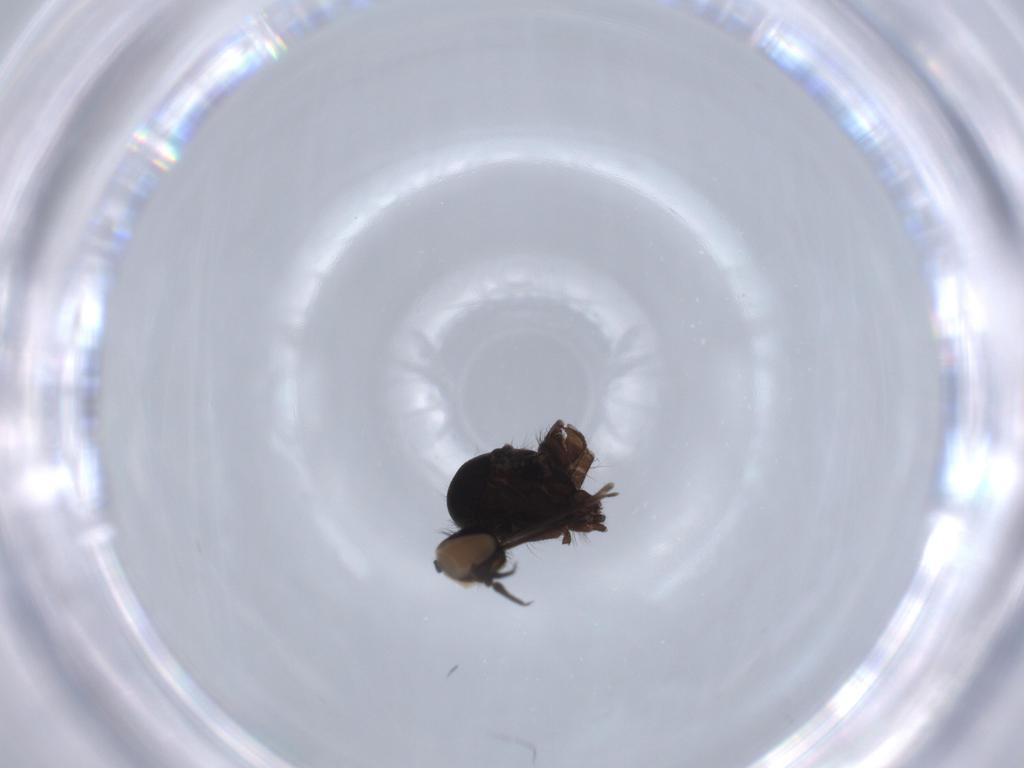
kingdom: Animalia
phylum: Arthropoda
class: Insecta
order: Diptera
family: Empididae
